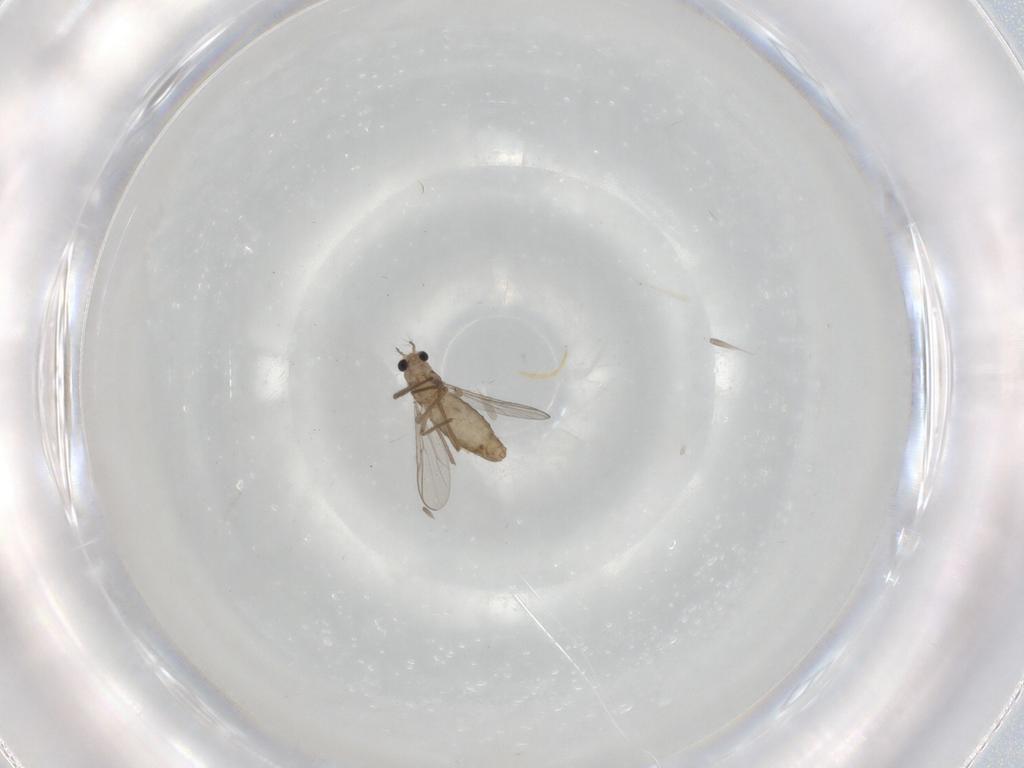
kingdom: Animalia
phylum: Arthropoda
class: Insecta
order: Diptera
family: Chironomidae
